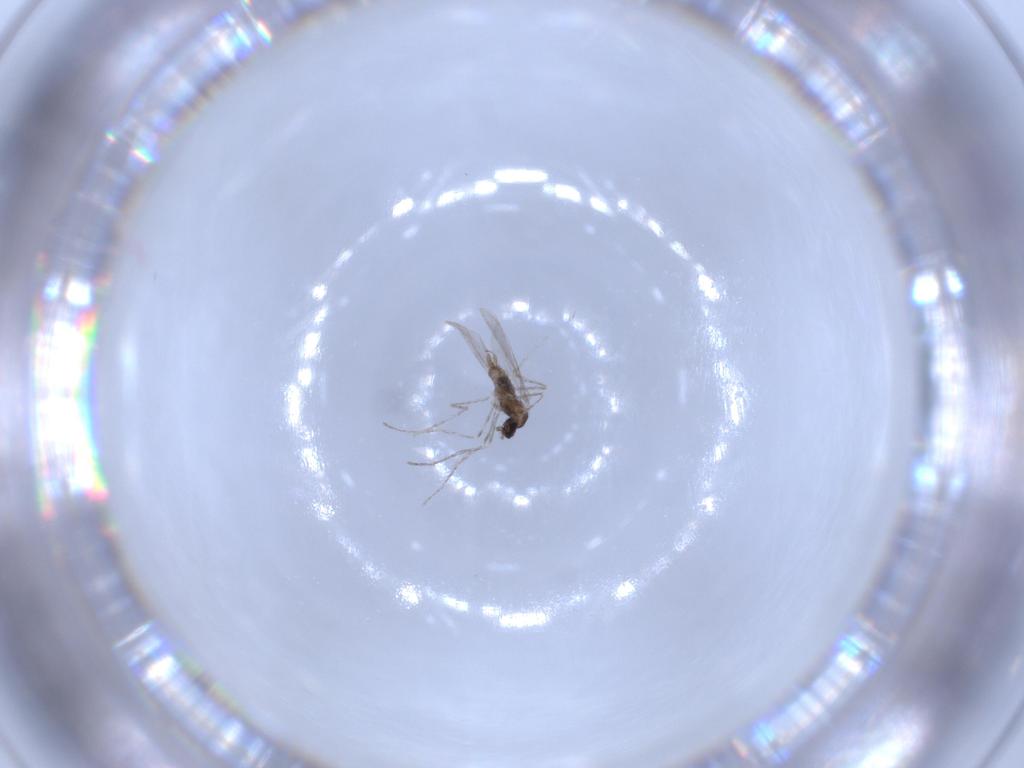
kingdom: Animalia
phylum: Arthropoda
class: Insecta
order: Diptera
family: Cecidomyiidae
